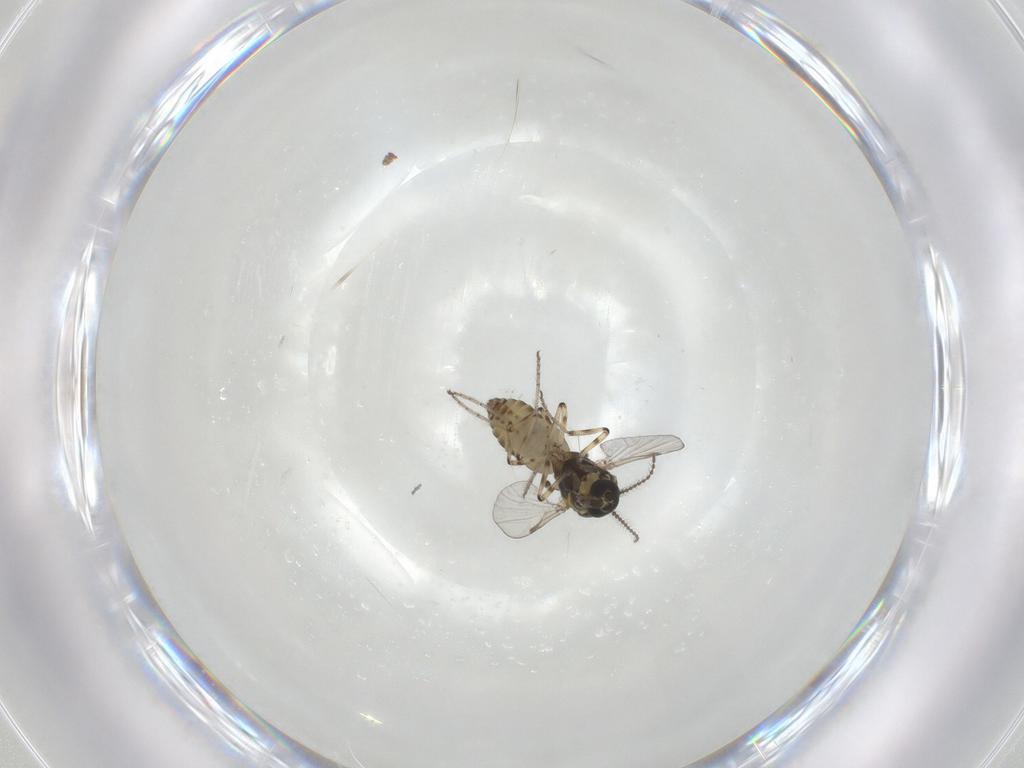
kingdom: Animalia
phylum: Arthropoda
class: Insecta
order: Diptera
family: Ceratopogonidae
